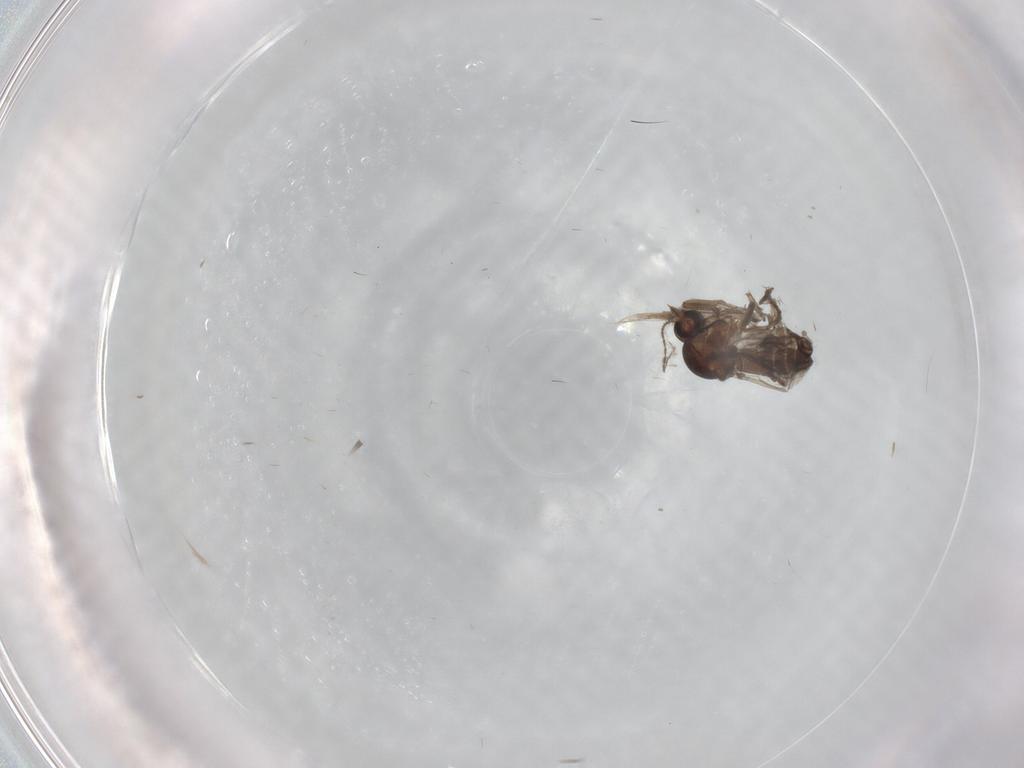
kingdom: Animalia
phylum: Arthropoda
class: Insecta
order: Diptera
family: Ceratopogonidae
